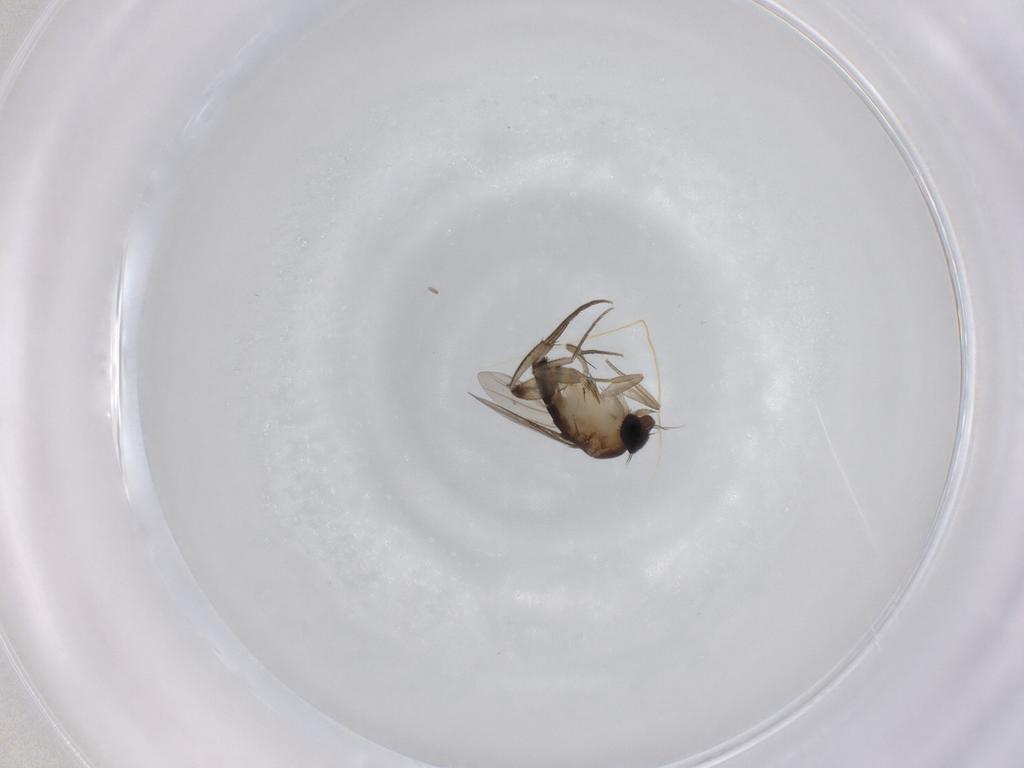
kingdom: Animalia
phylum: Arthropoda
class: Insecta
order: Diptera
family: Phoridae
